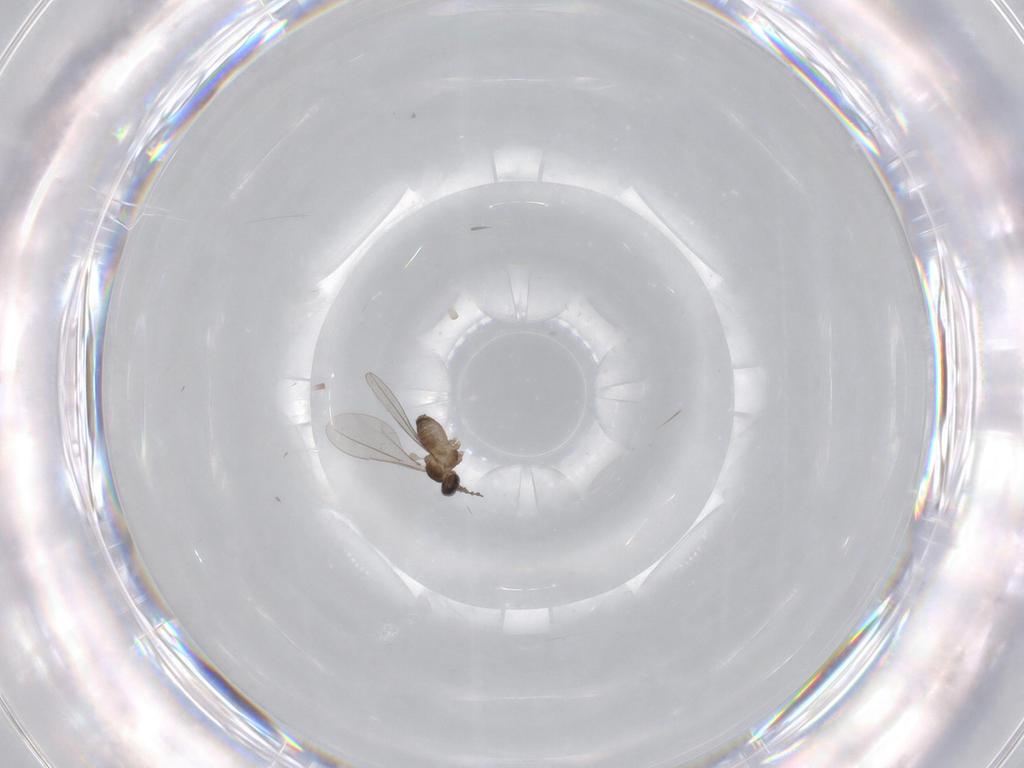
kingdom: Animalia
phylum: Arthropoda
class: Insecta
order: Diptera
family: Cecidomyiidae
